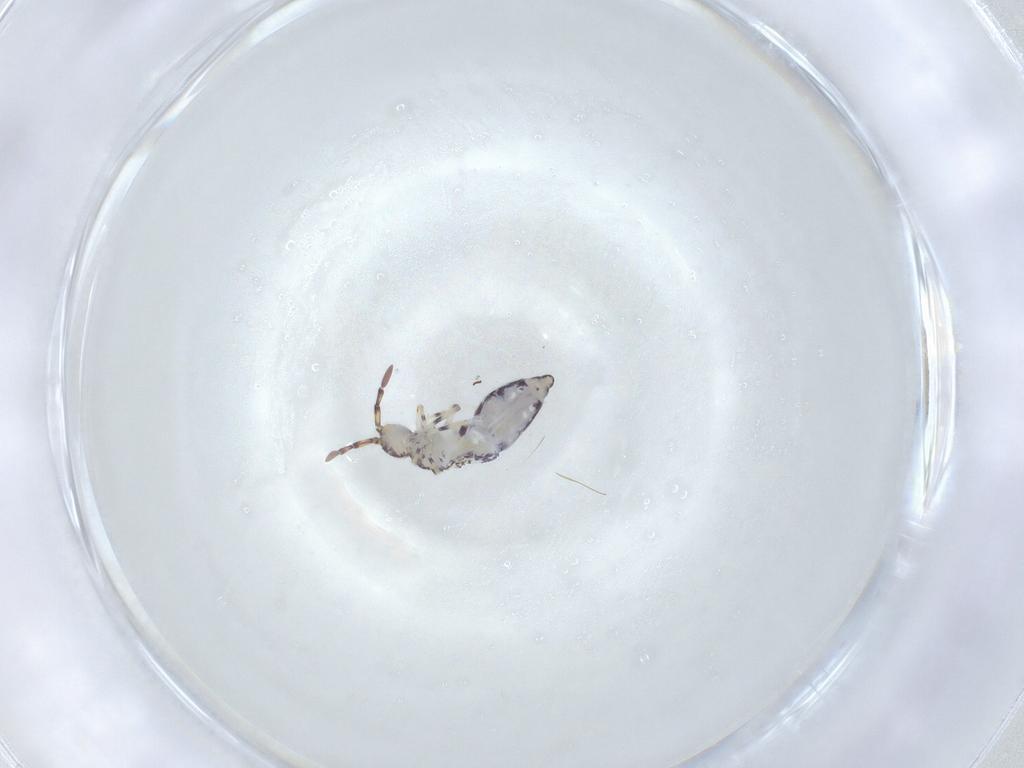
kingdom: Animalia
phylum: Arthropoda
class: Collembola
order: Entomobryomorpha
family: Entomobryidae
